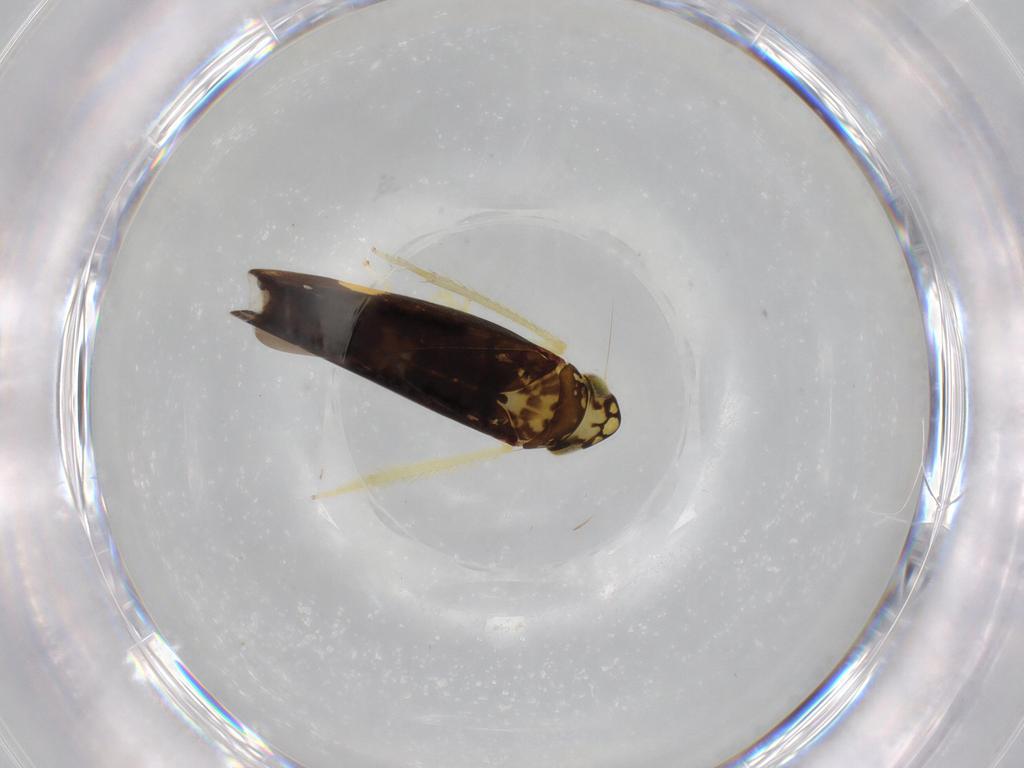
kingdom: Animalia
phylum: Arthropoda
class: Insecta
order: Hemiptera
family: Cicadellidae
